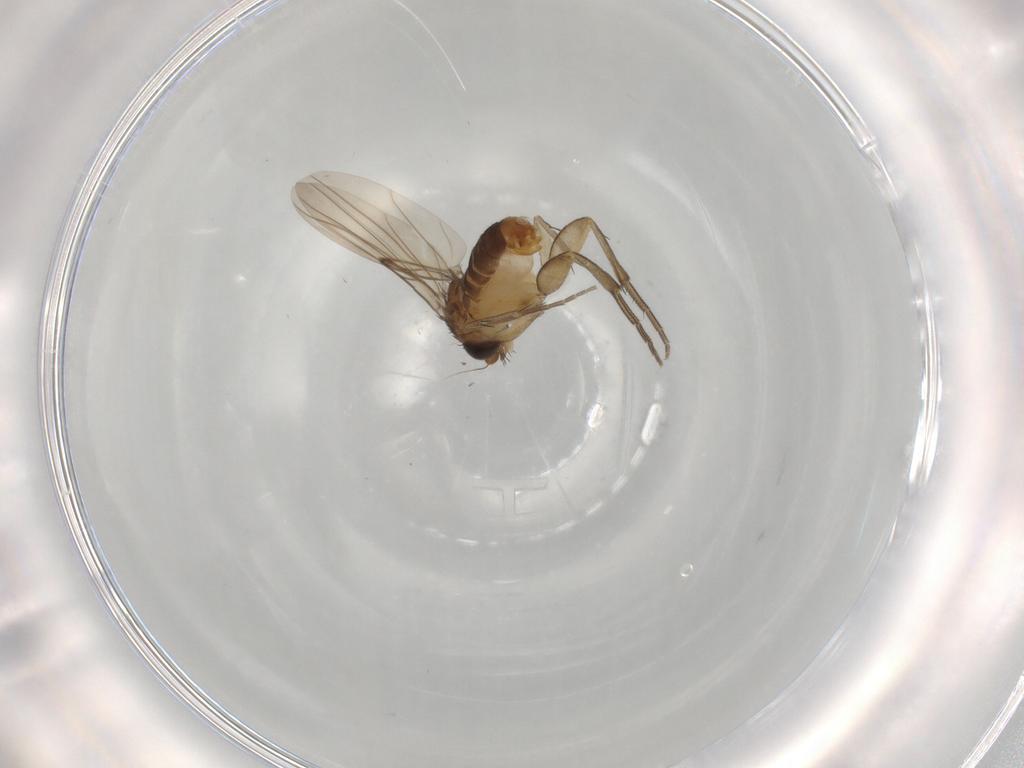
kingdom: Animalia
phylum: Arthropoda
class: Insecta
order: Diptera
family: Phoridae
